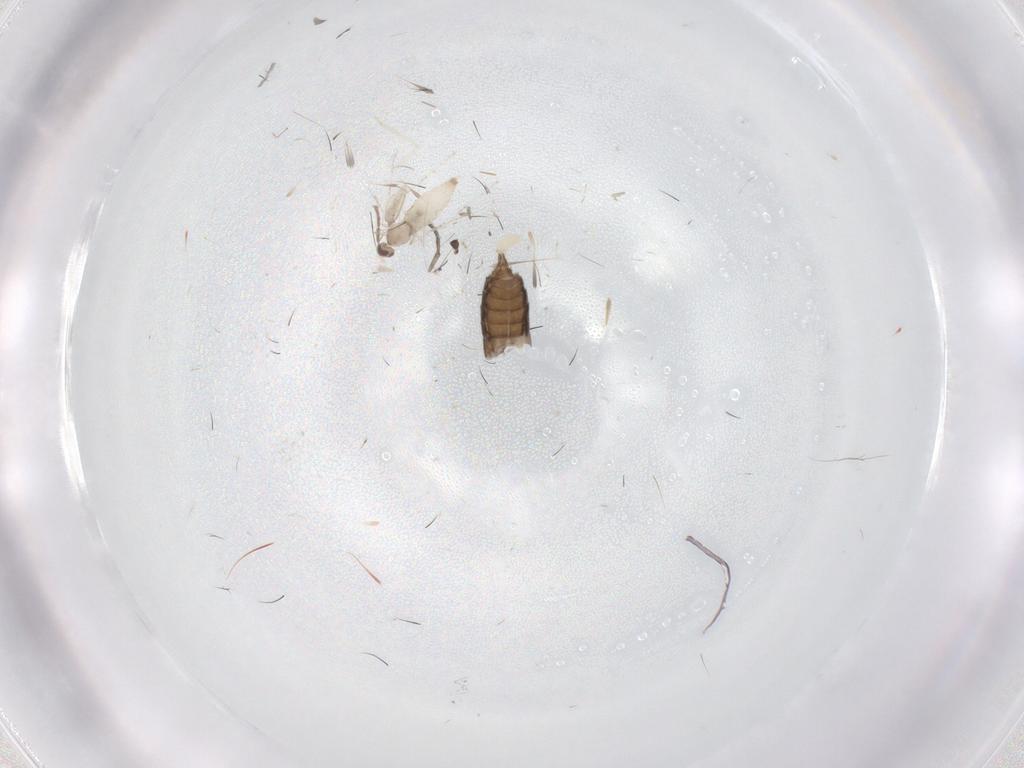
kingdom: Animalia
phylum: Arthropoda
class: Insecta
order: Diptera
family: Cecidomyiidae
